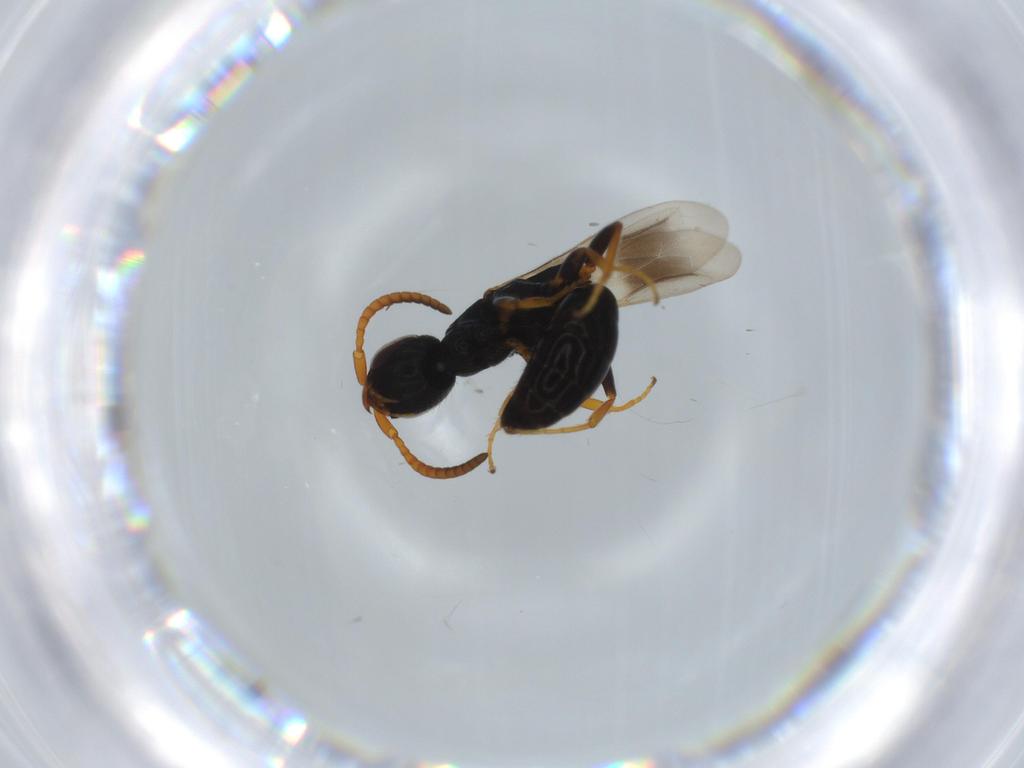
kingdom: Animalia
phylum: Arthropoda
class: Insecta
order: Hymenoptera
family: Bethylidae
